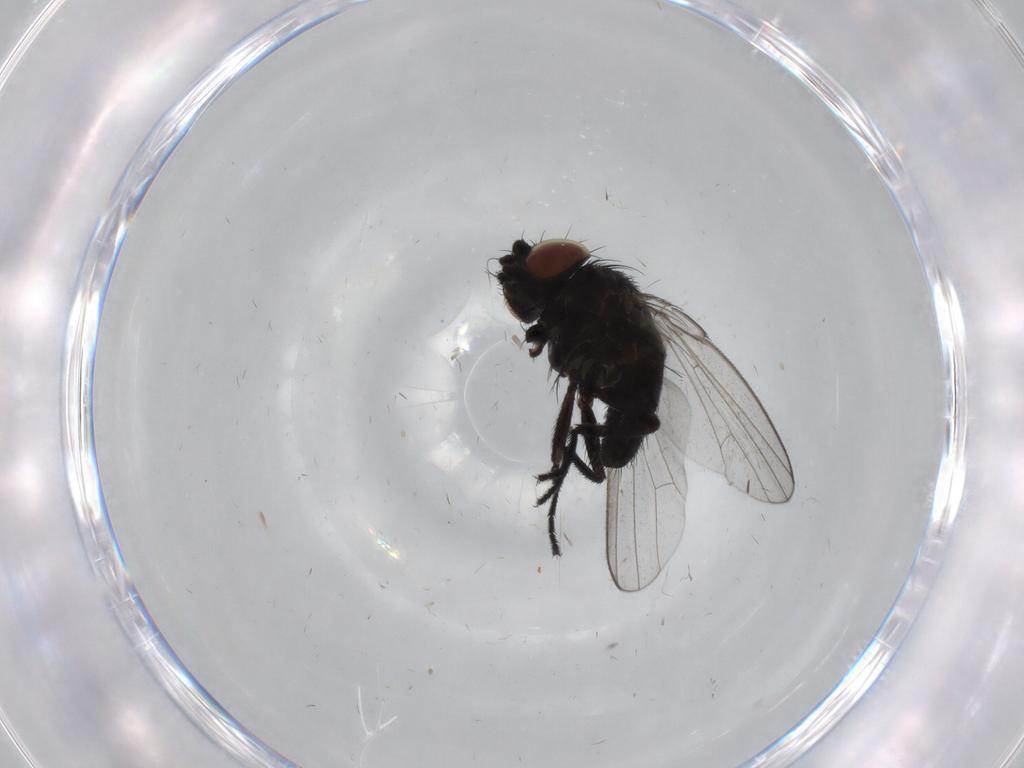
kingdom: Animalia
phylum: Arthropoda
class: Insecta
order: Diptera
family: Milichiidae
